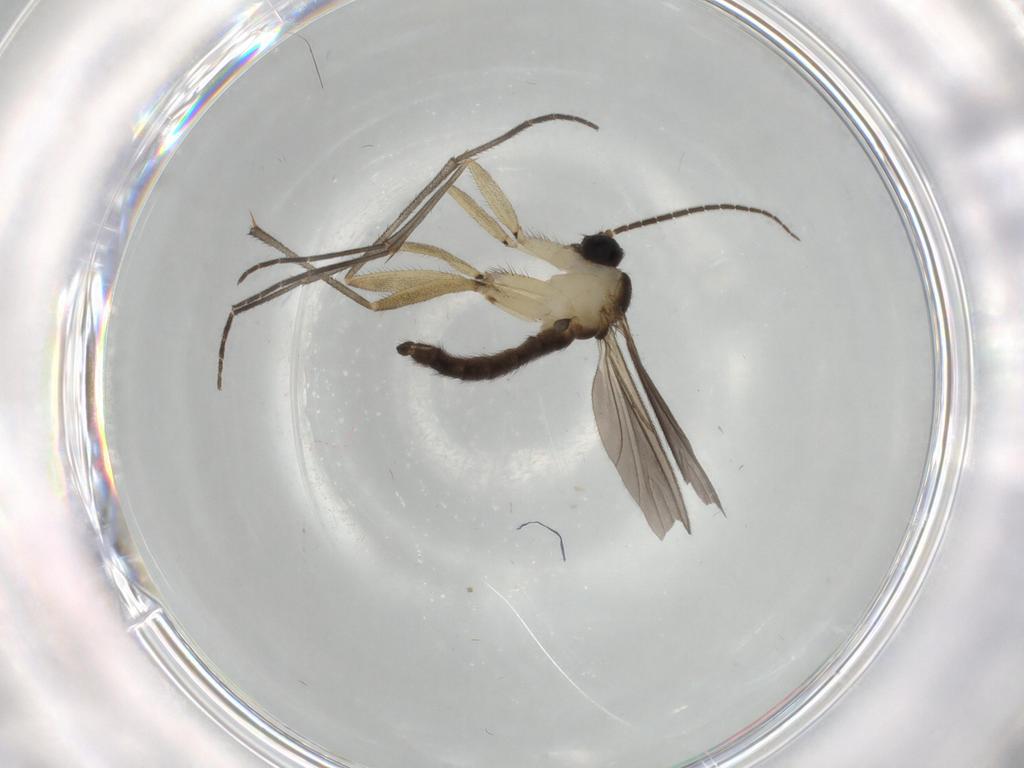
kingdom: Animalia
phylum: Arthropoda
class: Insecta
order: Diptera
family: Sciaridae
